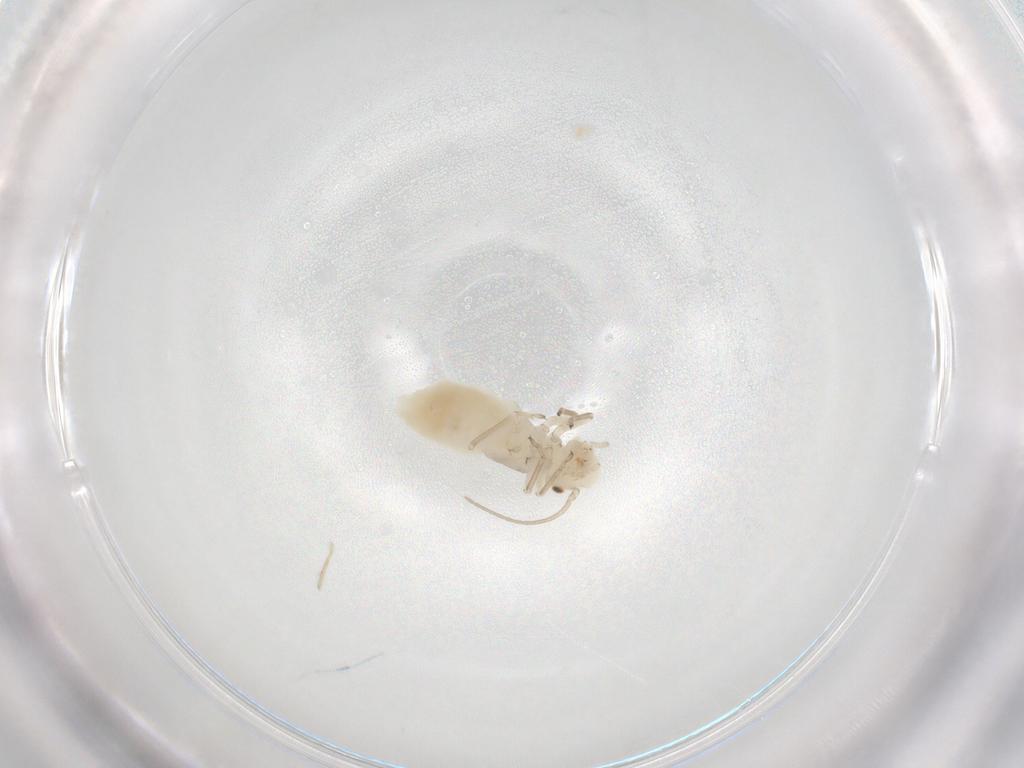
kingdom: Animalia
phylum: Arthropoda
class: Insecta
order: Psocodea
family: Caeciliusidae
